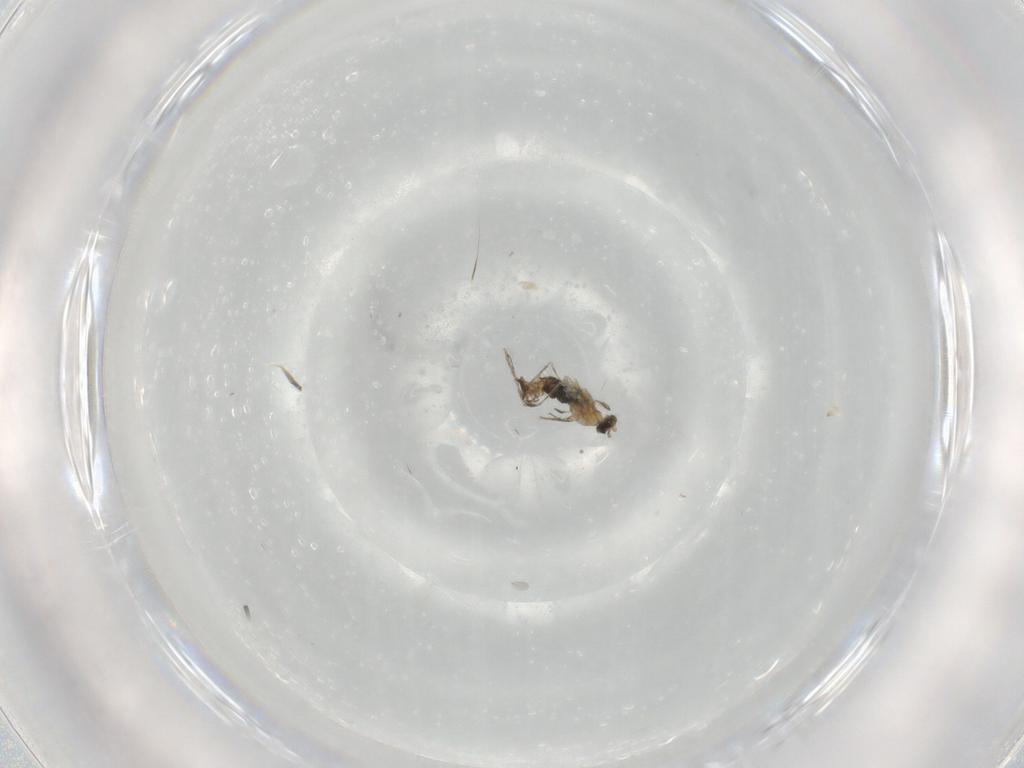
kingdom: Animalia
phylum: Arthropoda
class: Insecta
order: Diptera
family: Cecidomyiidae
